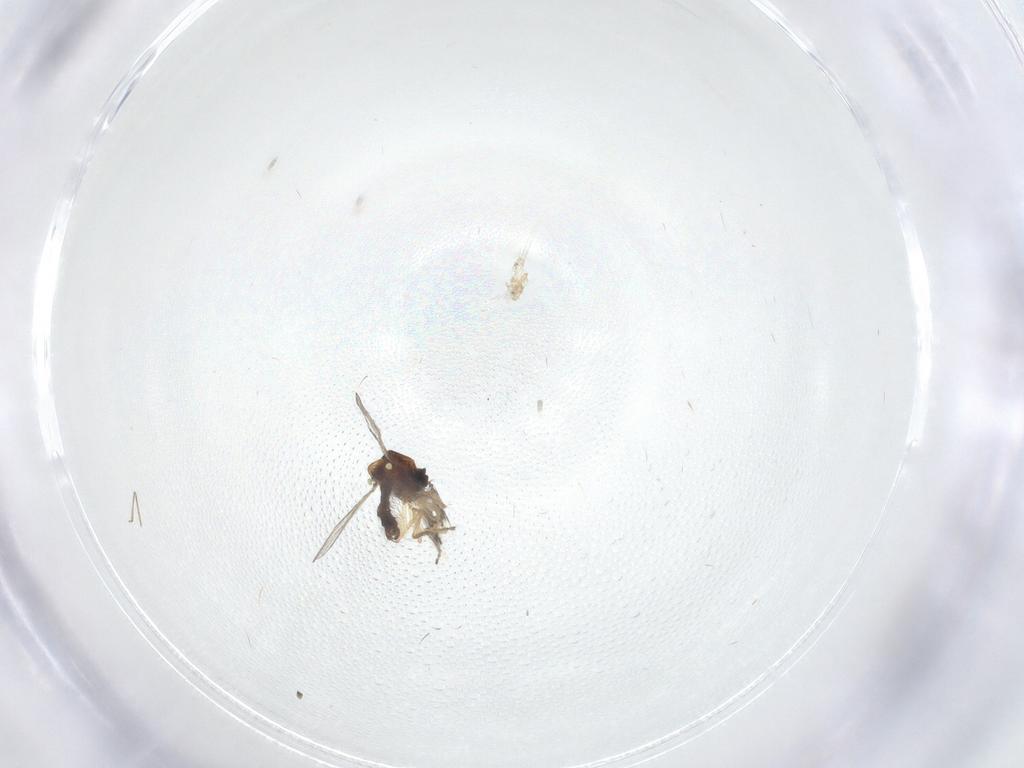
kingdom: Animalia
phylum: Arthropoda
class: Insecta
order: Diptera
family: Ceratopogonidae
